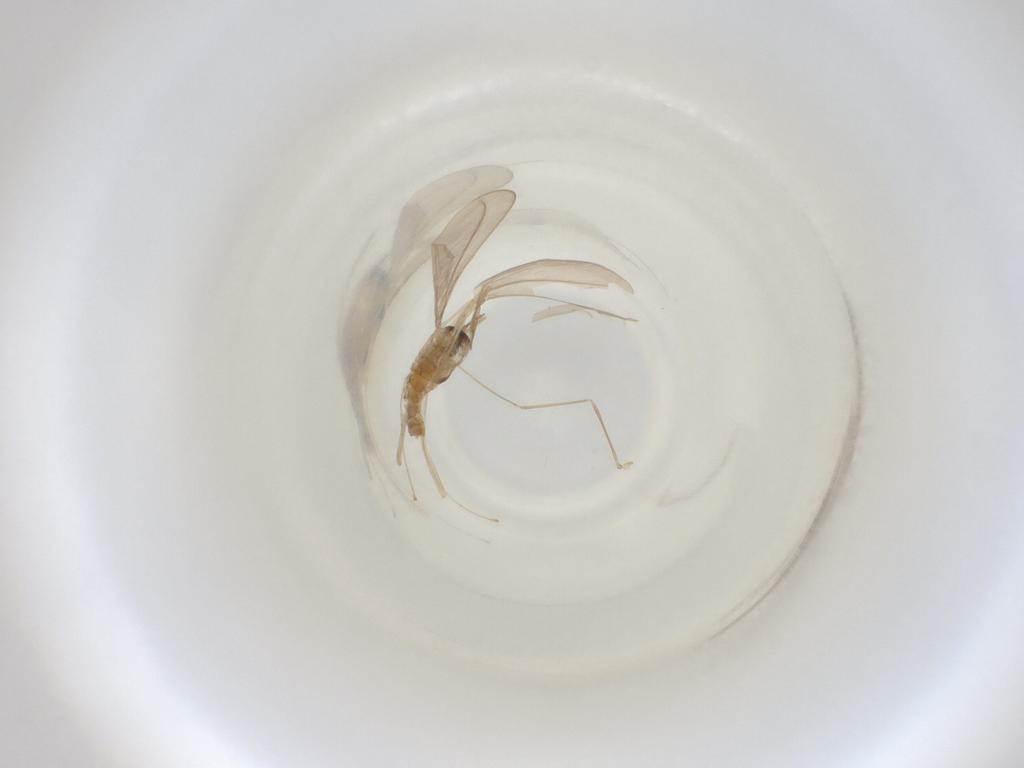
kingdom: Animalia
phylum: Arthropoda
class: Insecta
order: Diptera
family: Cecidomyiidae
